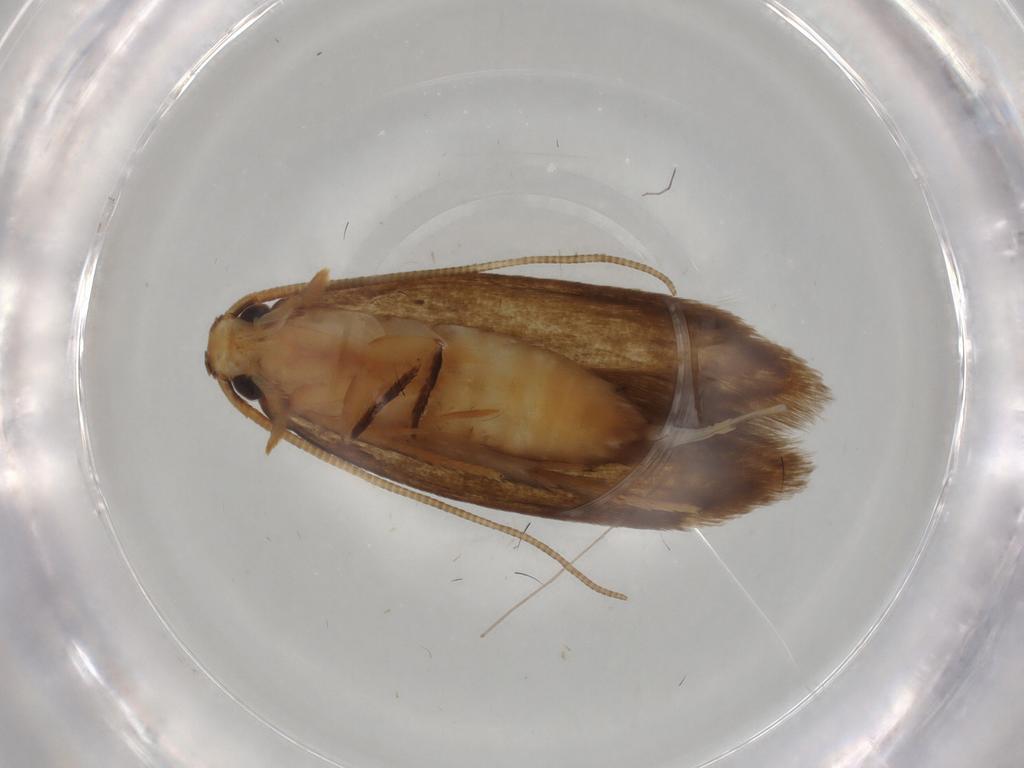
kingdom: Animalia
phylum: Arthropoda
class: Insecta
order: Lepidoptera
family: Tineidae
